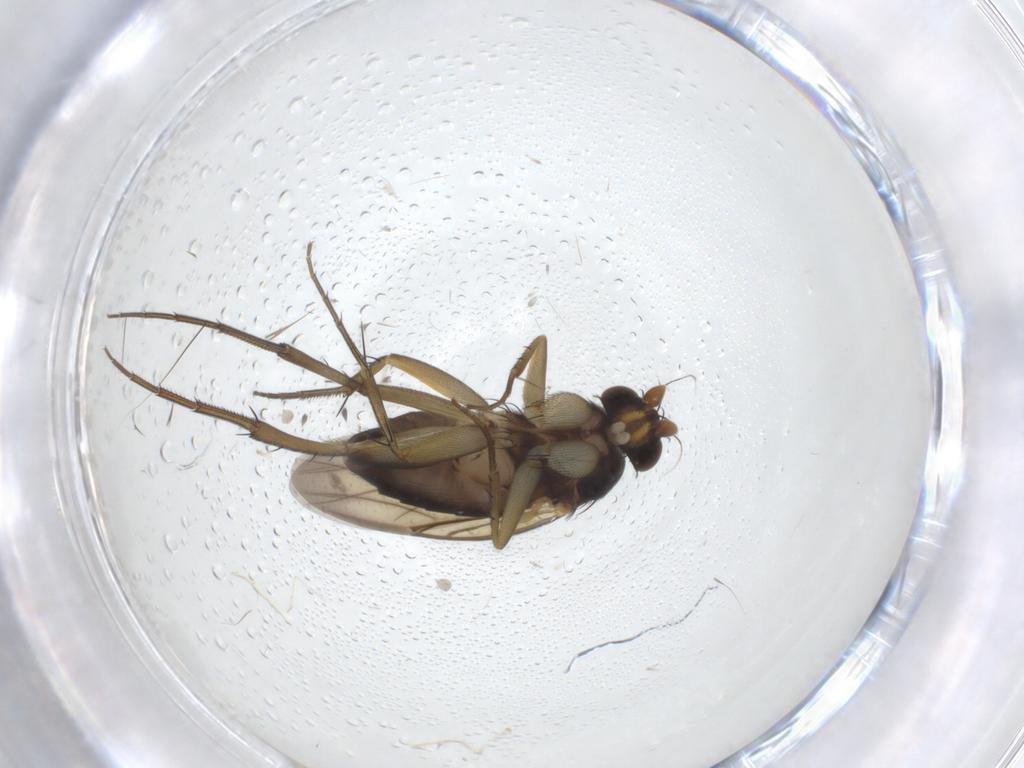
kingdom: Animalia
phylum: Arthropoda
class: Insecta
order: Diptera
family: Phoridae
